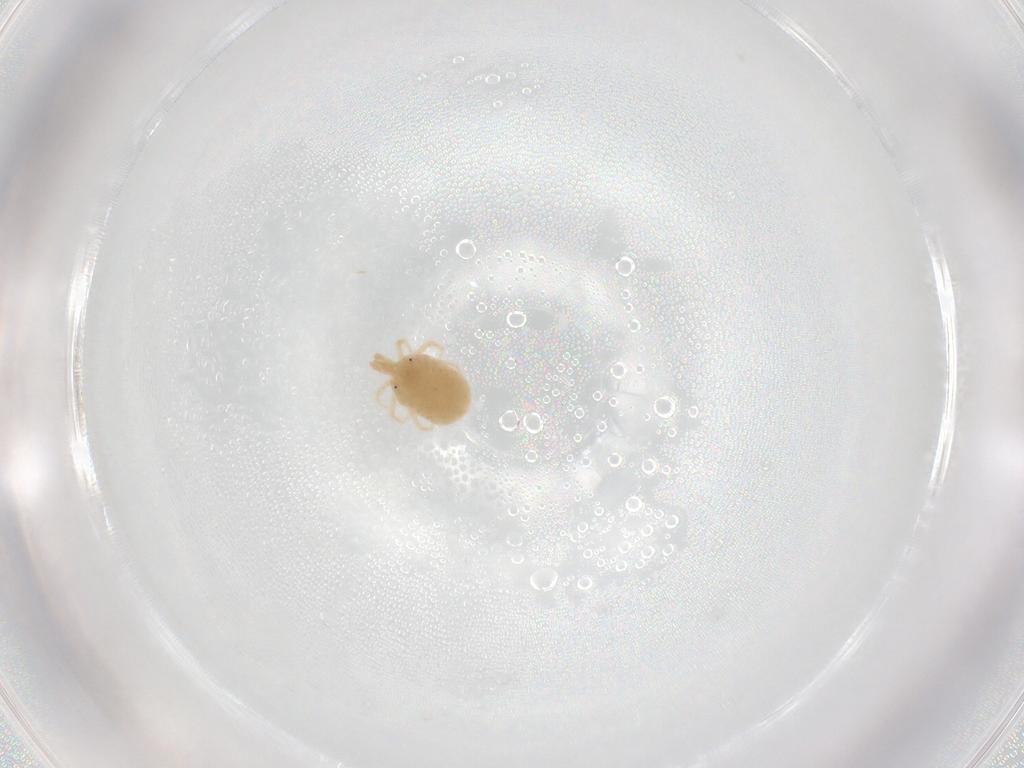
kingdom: Animalia
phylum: Arthropoda
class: Arachnida
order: Trombidiformes
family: Tetranychidae
